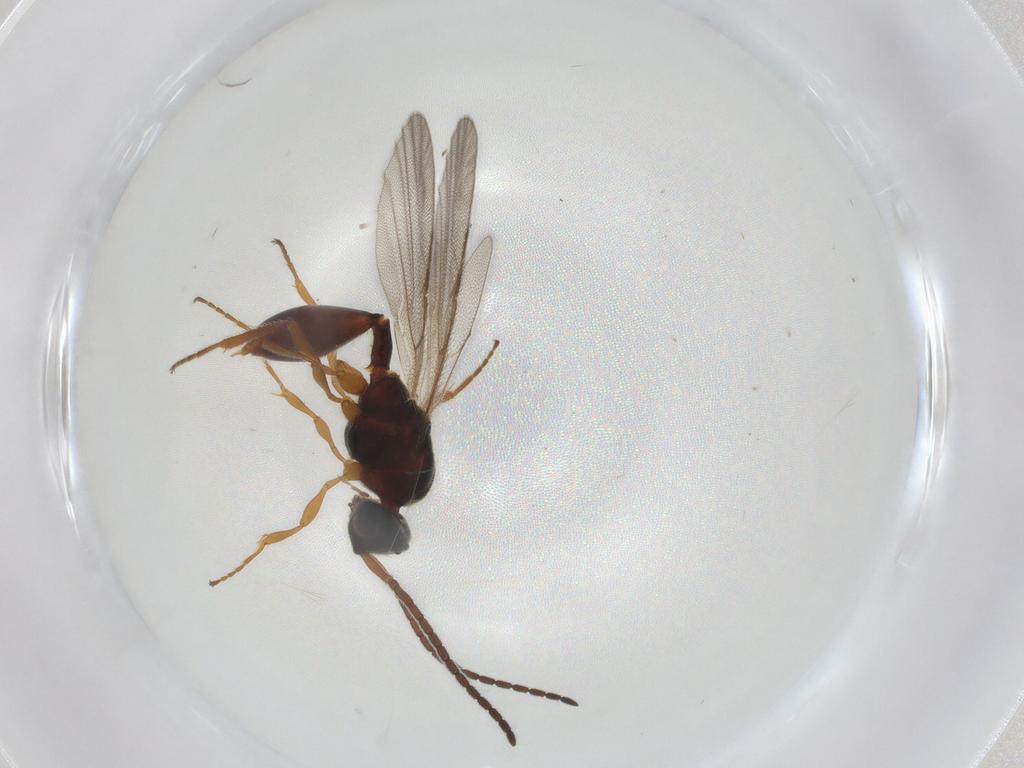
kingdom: Animalia
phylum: Arthropoda
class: Insecta
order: Hymenoptera
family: Diapriidae
